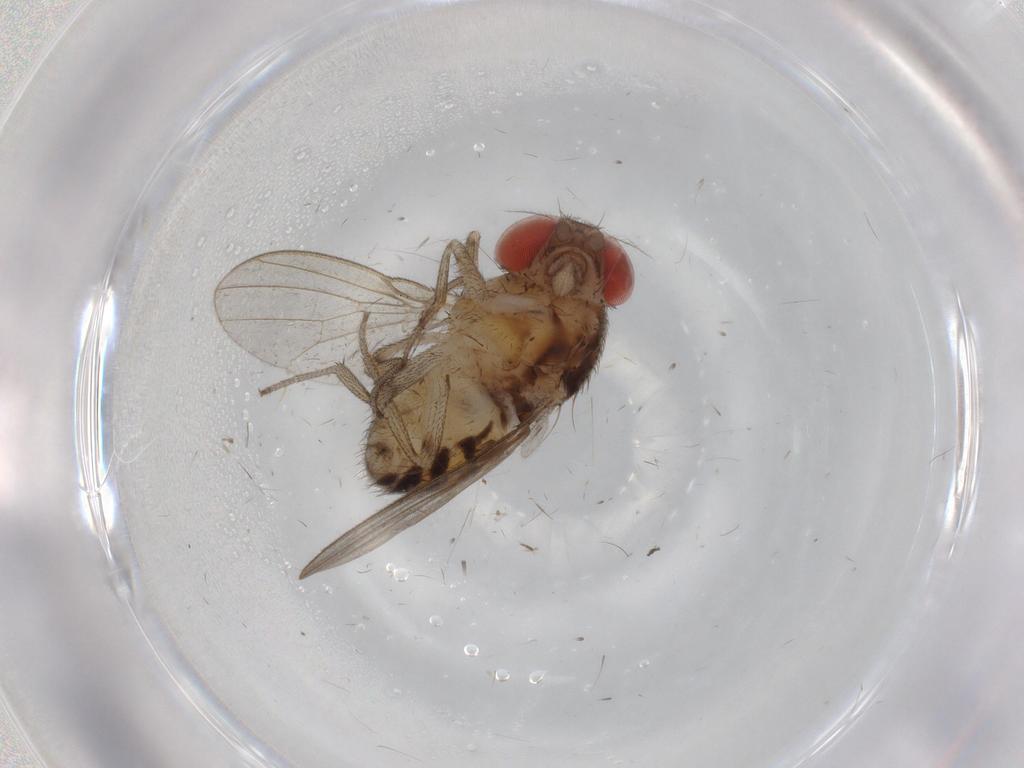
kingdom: Animalia
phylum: Arthropoda
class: Insecta
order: Diptera
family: Drosophilidae
